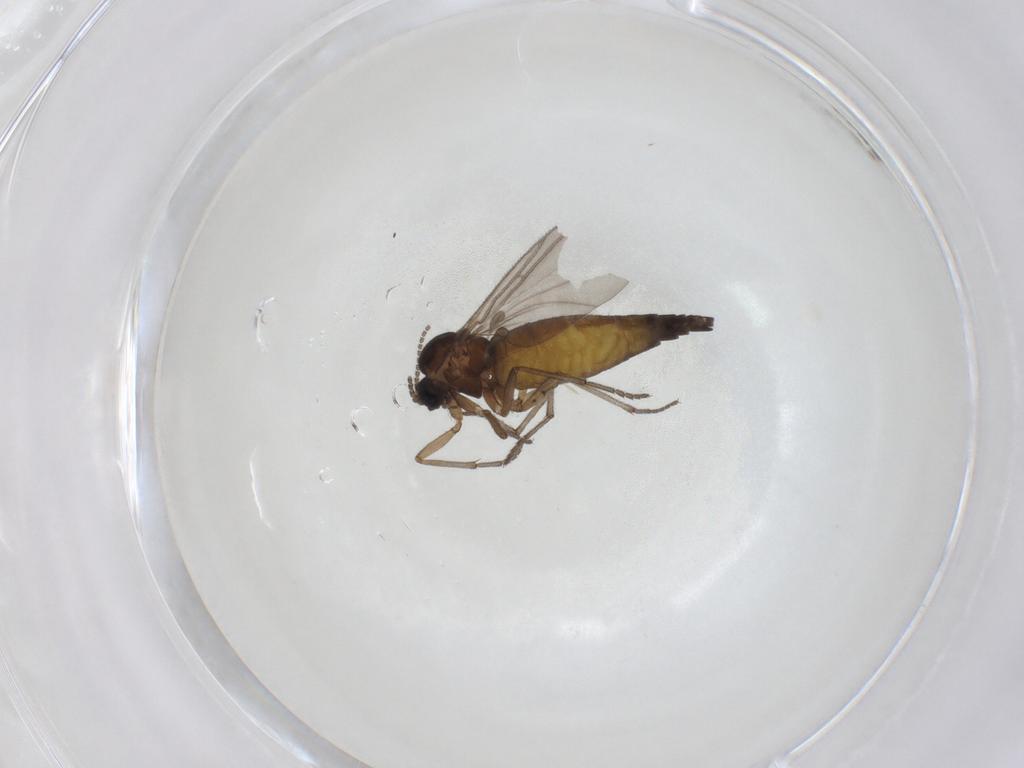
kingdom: Animalia
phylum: Arthropoda
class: Insecta
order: Diptera
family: Sciaridae
